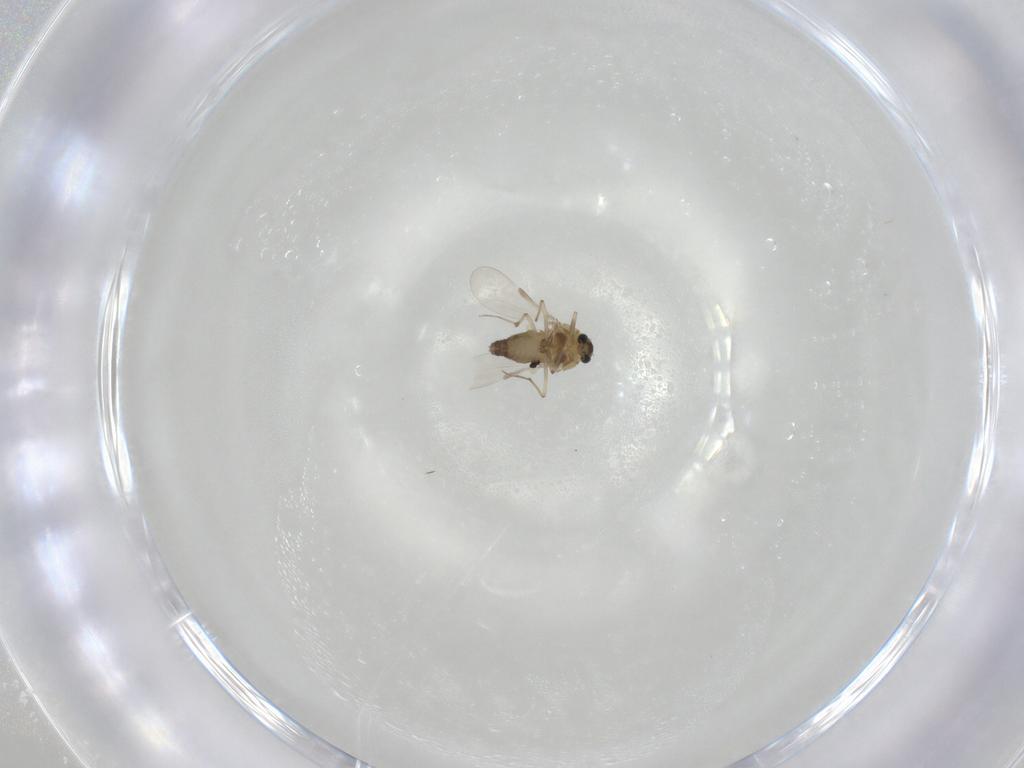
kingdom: Animalia
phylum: Arthropoda
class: Insecta
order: Diptera
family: Chironomidae
